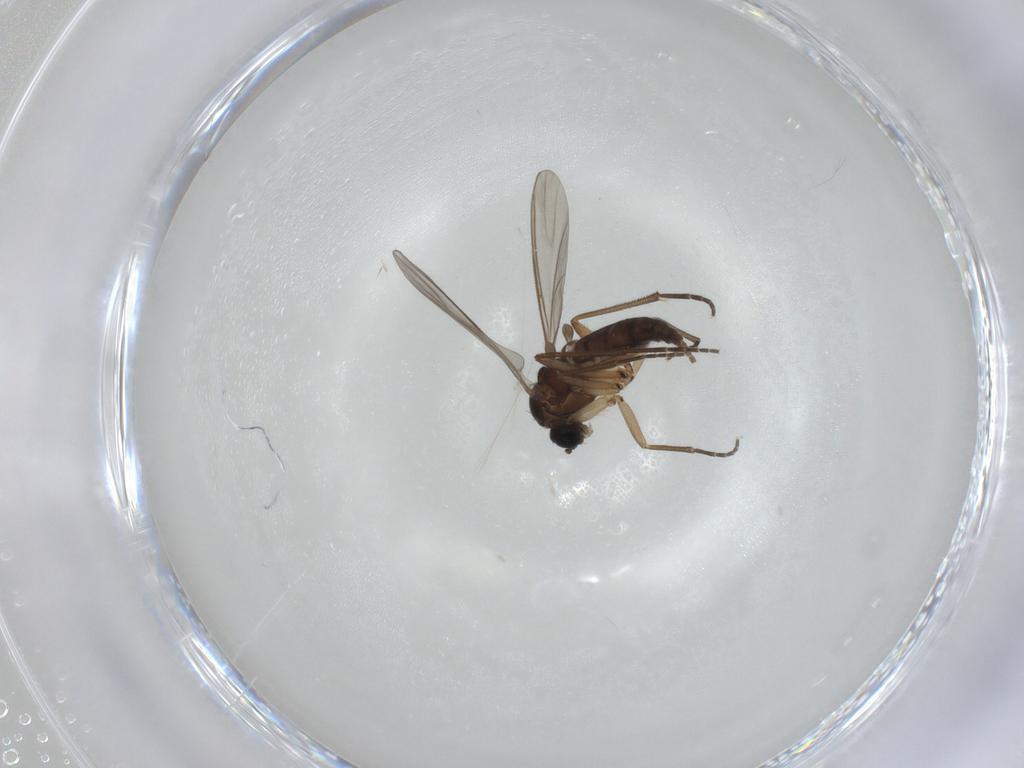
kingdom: Animalia
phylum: Arthropoda
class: Insecta
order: Diptera
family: Sciaridae
